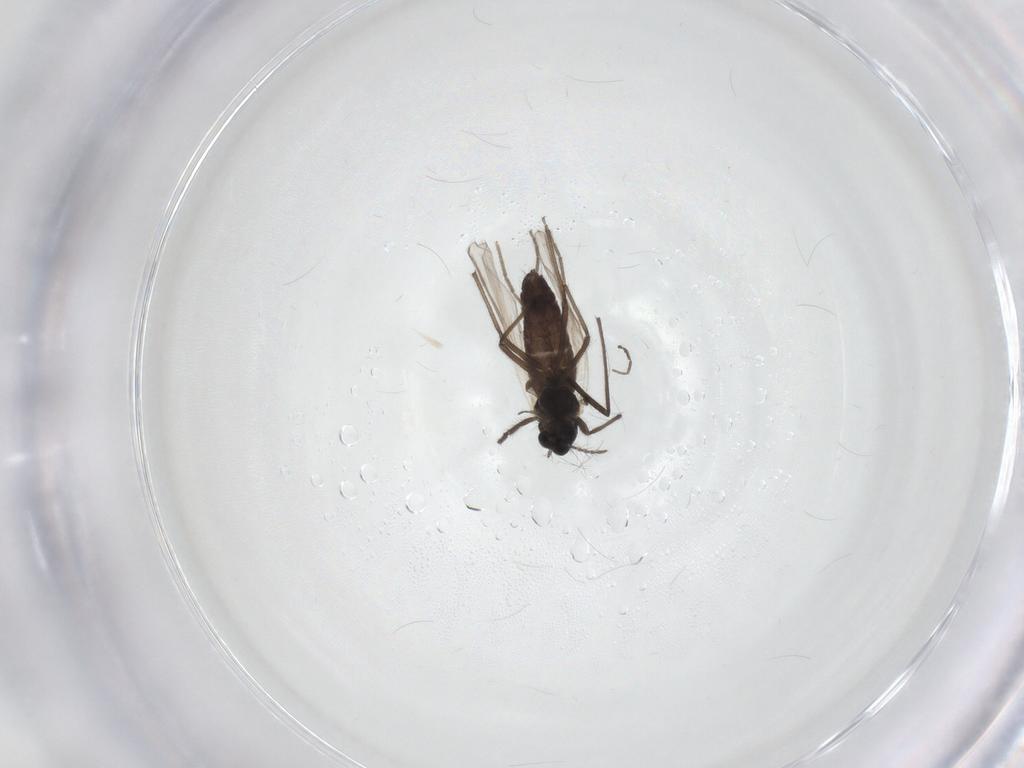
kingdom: Animalia
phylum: Arthropoda
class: Insecta
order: Diptera
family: Chironomidae
